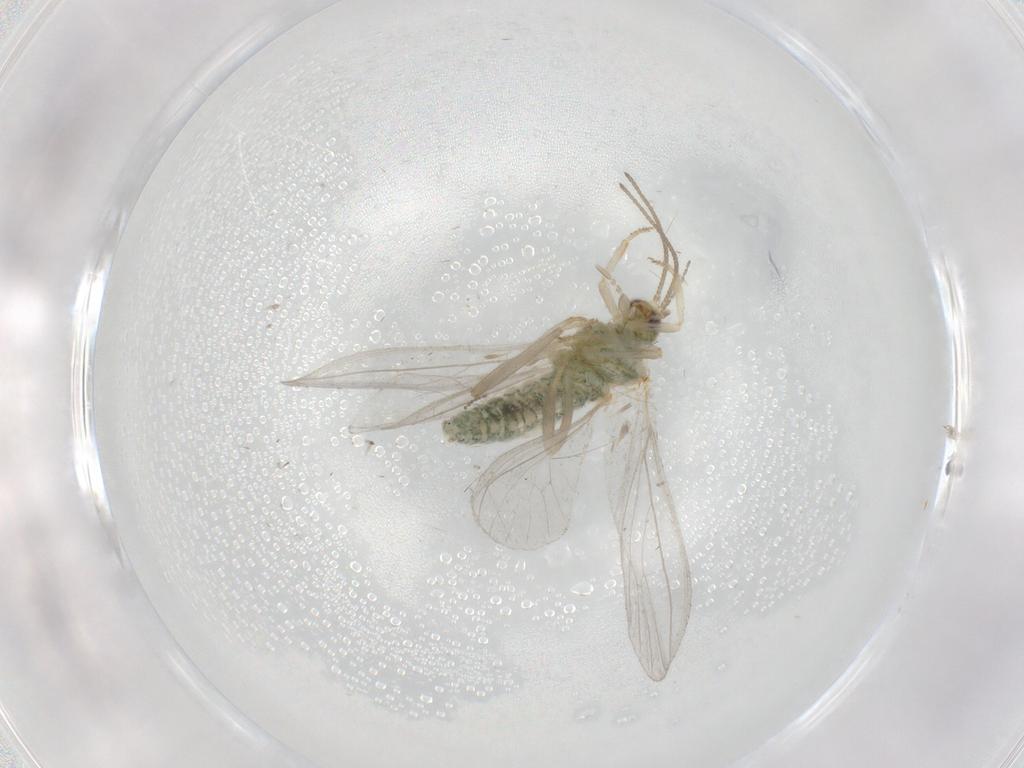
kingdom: Animalia
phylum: Arthropoda
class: Insecta
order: Neuroptera
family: Coniopterygidae
